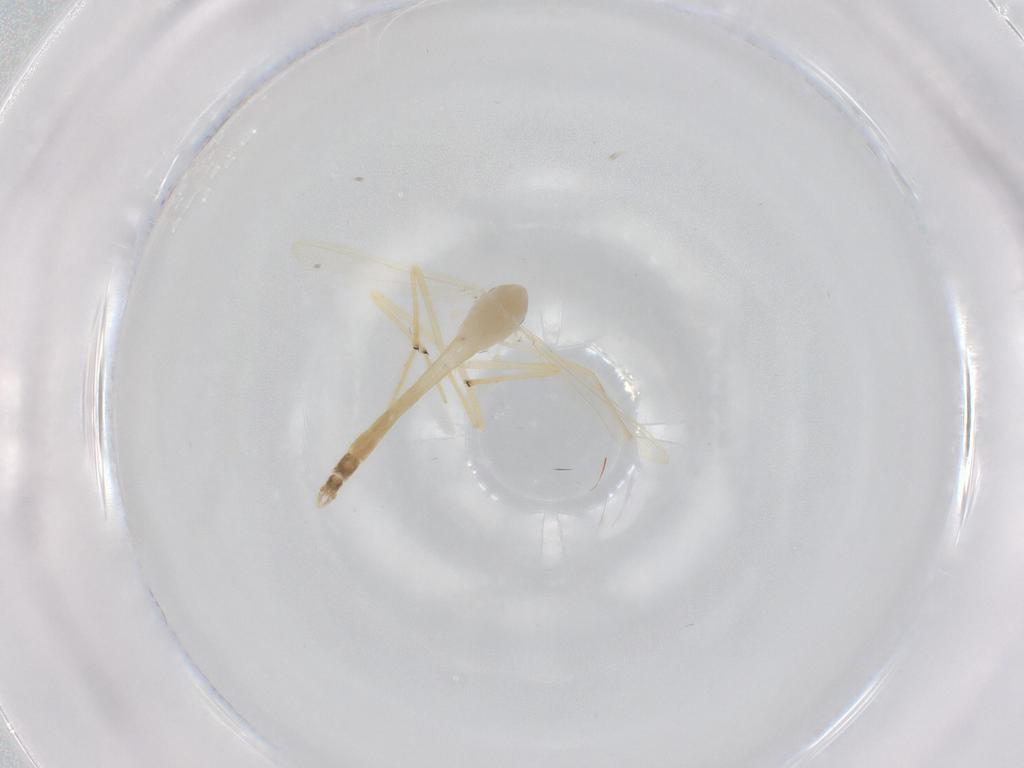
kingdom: Animalia
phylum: Arthropoda
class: Insecta
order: Diptera
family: Chironomidae
